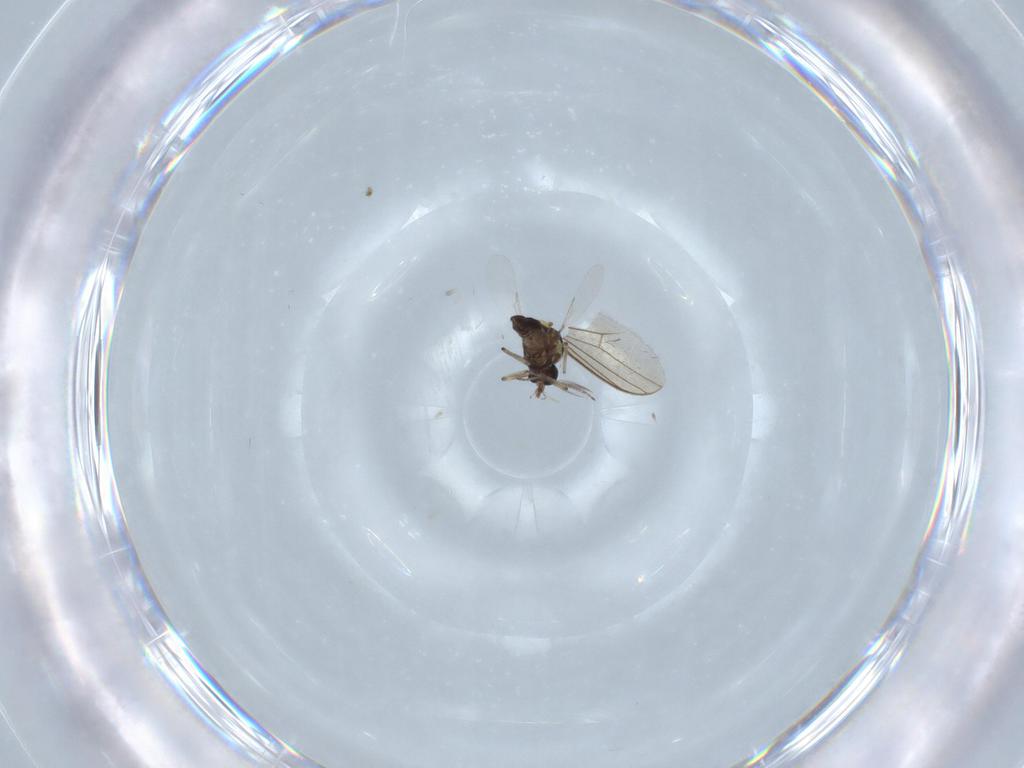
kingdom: Animalia
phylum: Arthropoda
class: Insecta
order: Diptera
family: Ceratopogonidae
